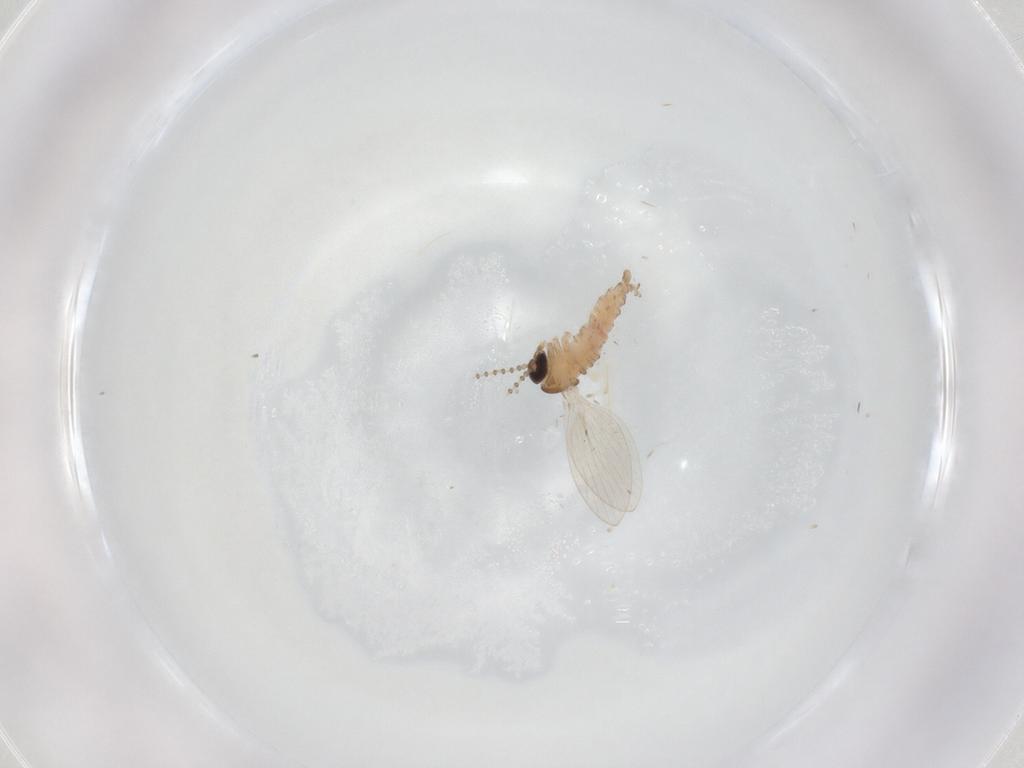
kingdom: Animalia
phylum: Arthropoda
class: Insecta
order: Diptera
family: Psychodidae
